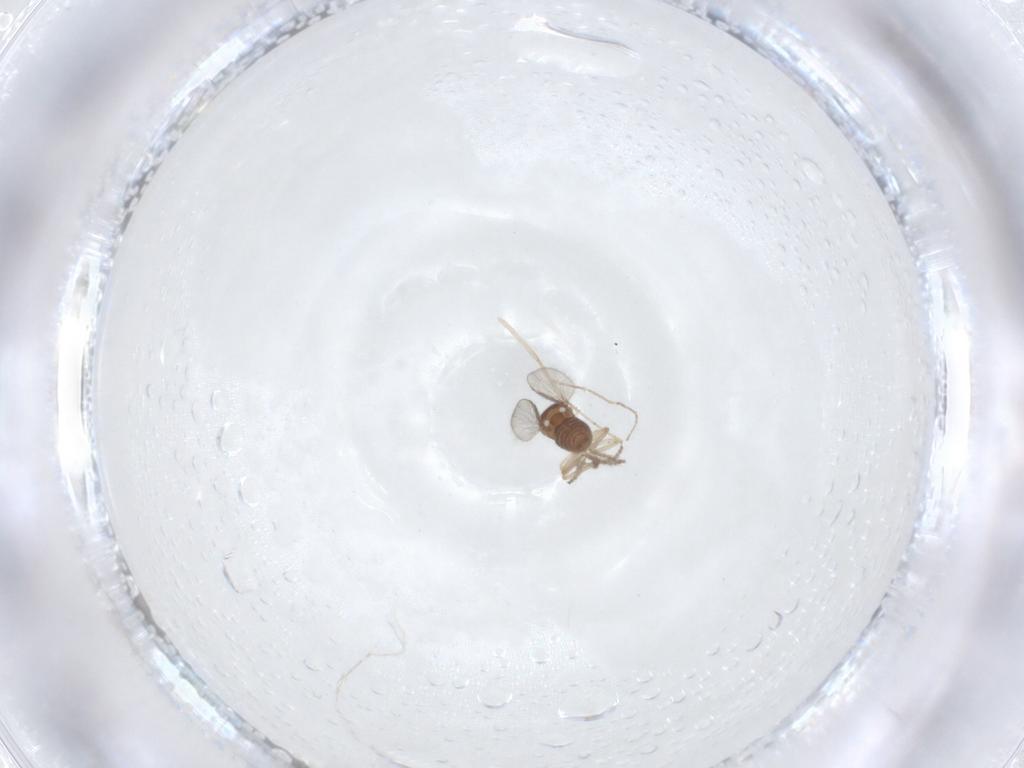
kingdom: Animalia
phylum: Arthropoda
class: Insecta
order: Diptera
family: Ceratopogonidae
